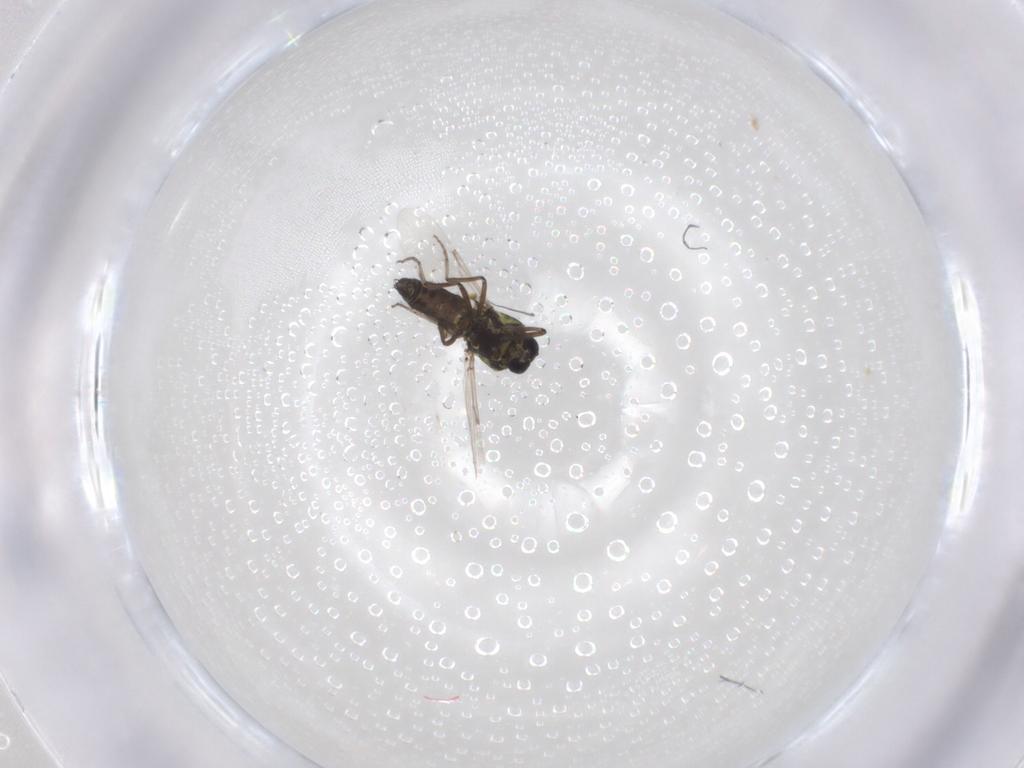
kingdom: Animalia
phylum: Arthropoda
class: Insecta
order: Diptera
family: Ceratopogonidae
